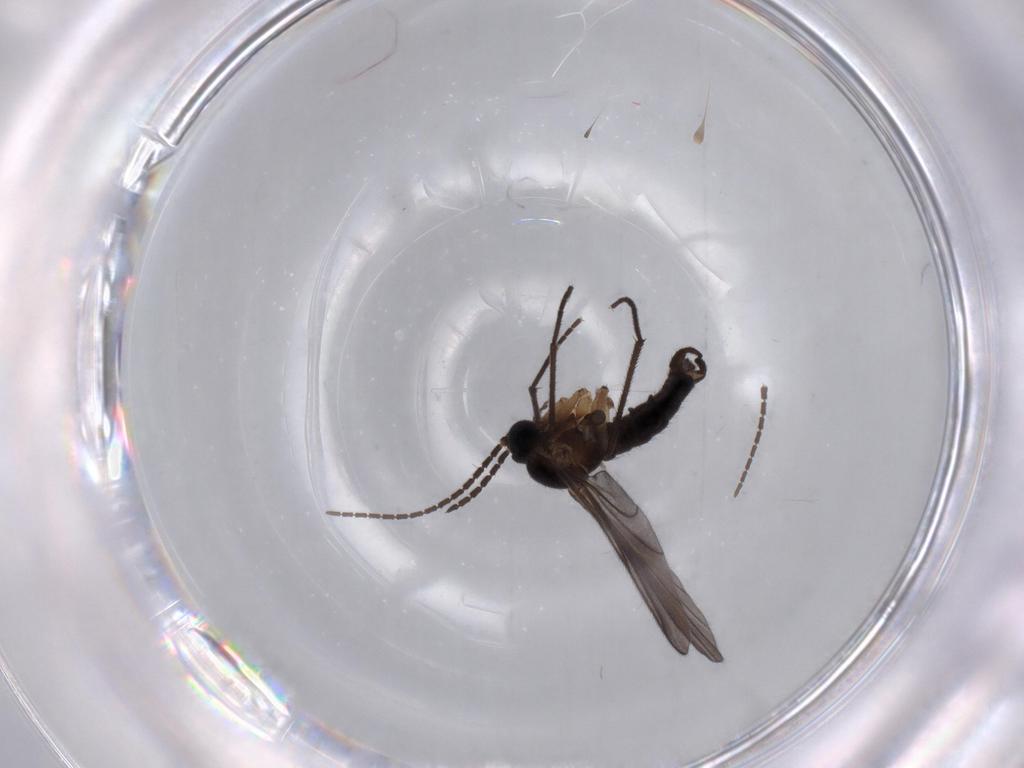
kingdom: Animalia
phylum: Arthropoda
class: Insecta
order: Diptera
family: Sciaridae
